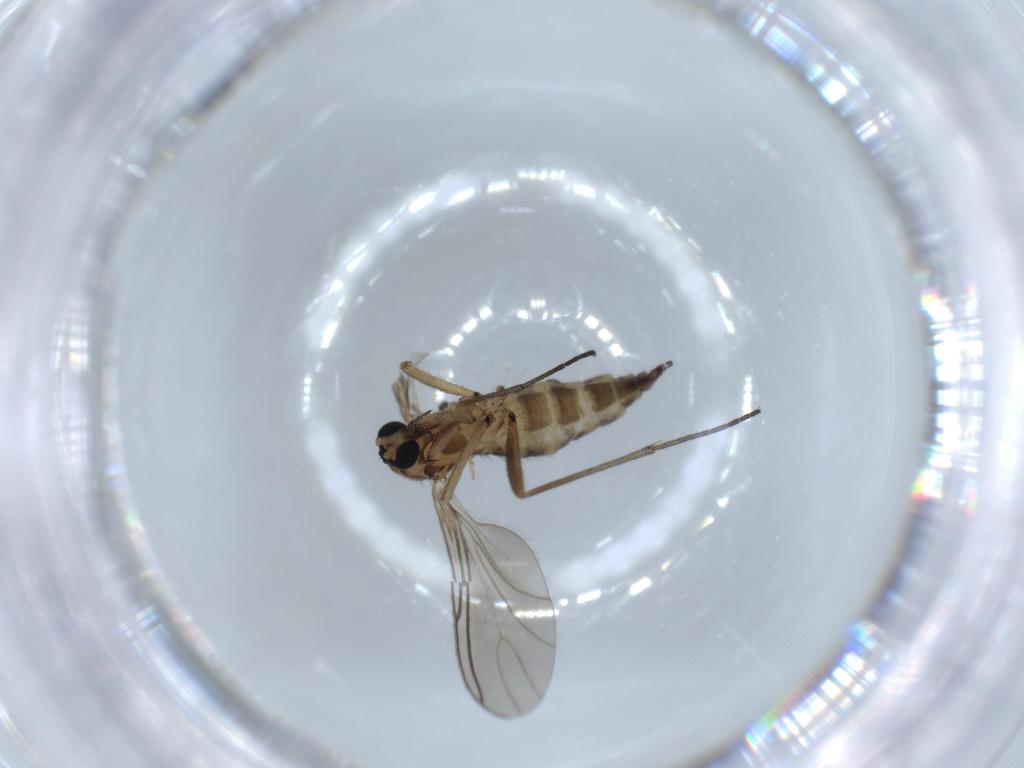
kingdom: Animalia
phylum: Arthropoda
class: Insecta
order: Diptera
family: Sciaridae
